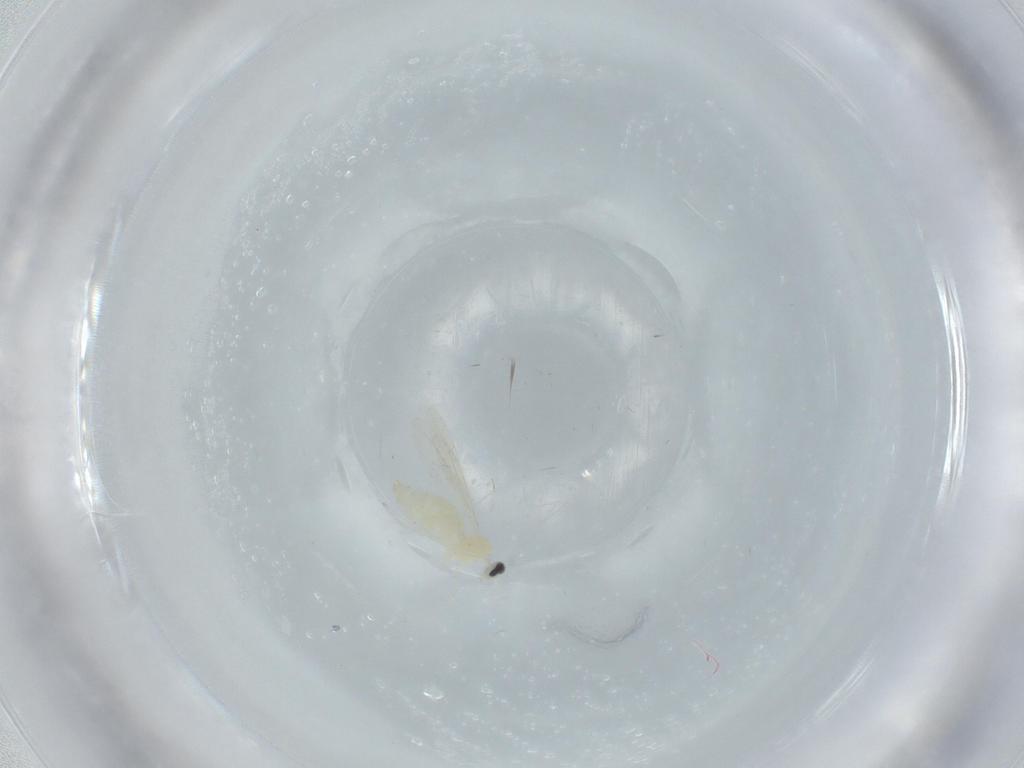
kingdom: Animalia
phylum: Arthropoda
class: Insecta
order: Diptera
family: Cecidomyiidae
